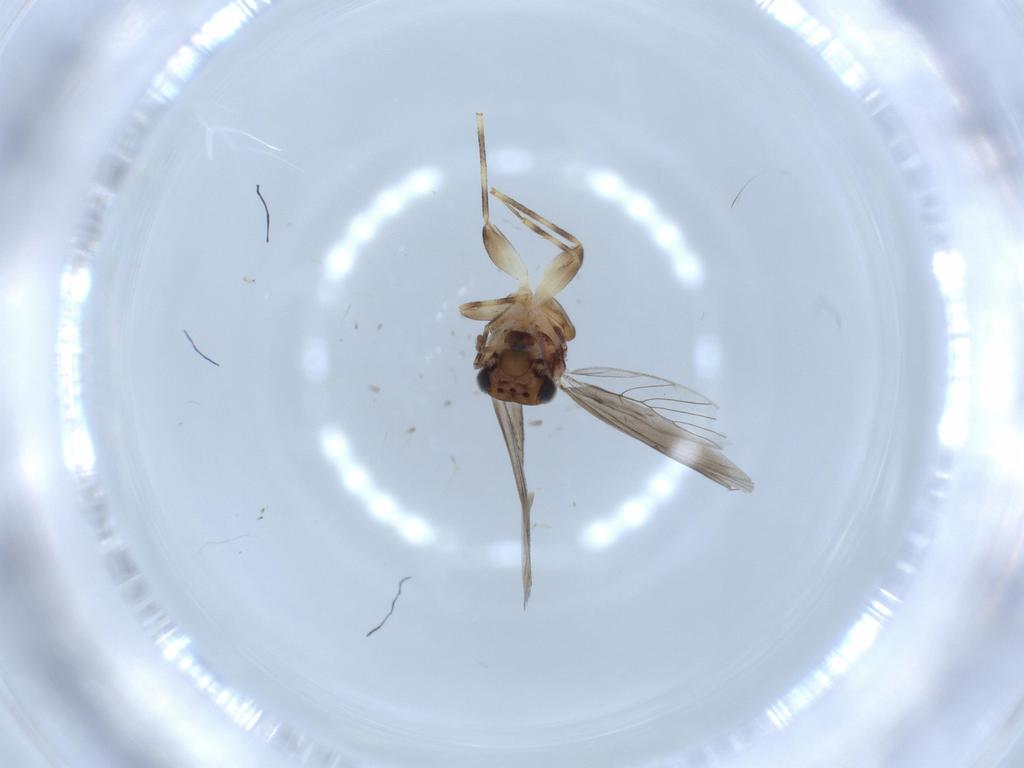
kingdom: Animalia
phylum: Arthropoda
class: Insecta
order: Psocodea
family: Lepidopsocidae
